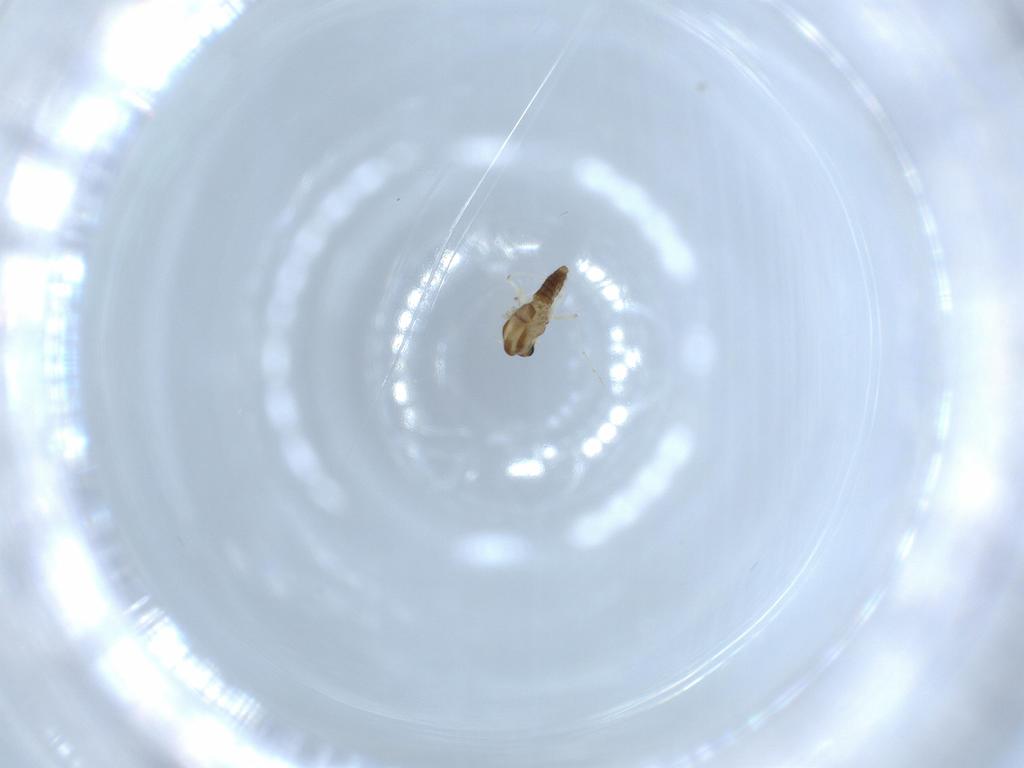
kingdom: Animalia
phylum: Arthropoda
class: Insecta
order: Diptera
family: Chironomidae
